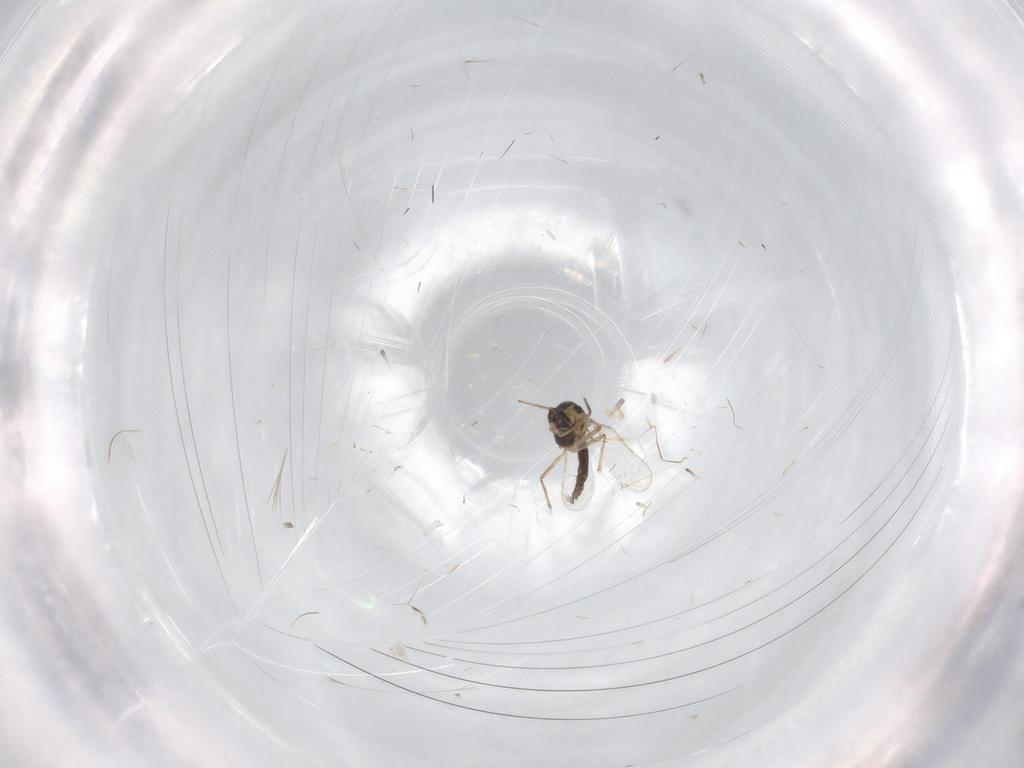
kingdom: Animalia
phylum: Arthropoda
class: Insecta
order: Diptera
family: Chironomidae
